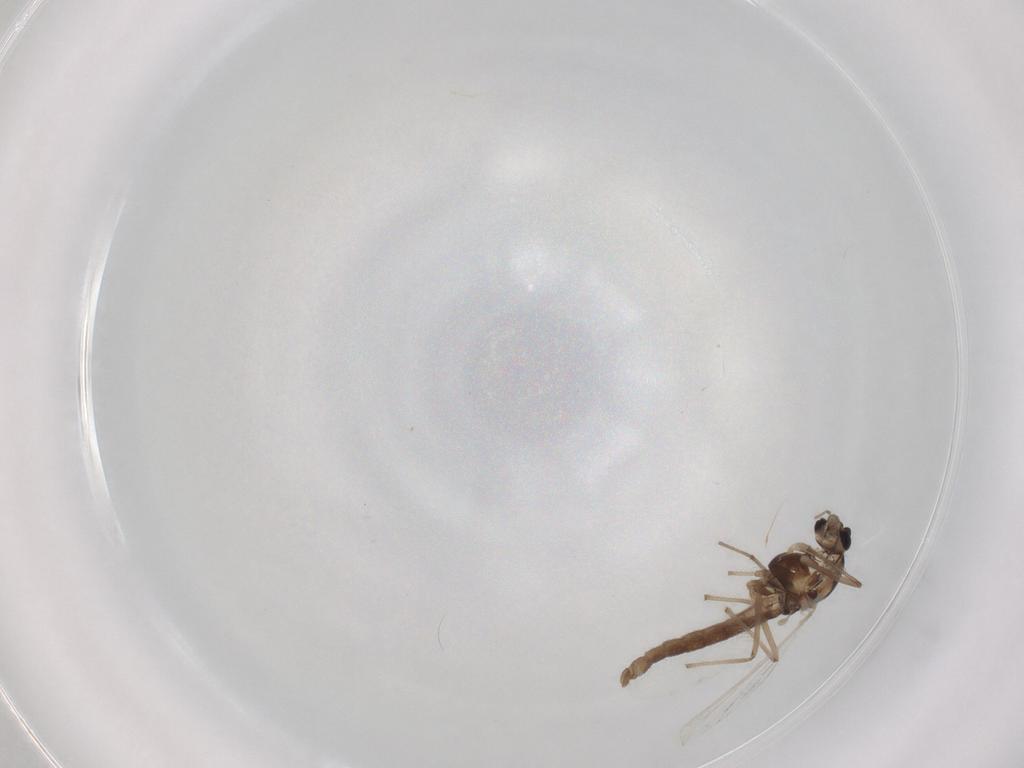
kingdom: Animalia
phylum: Arthropoda
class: Insecta
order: Diptera
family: Chironomidae
